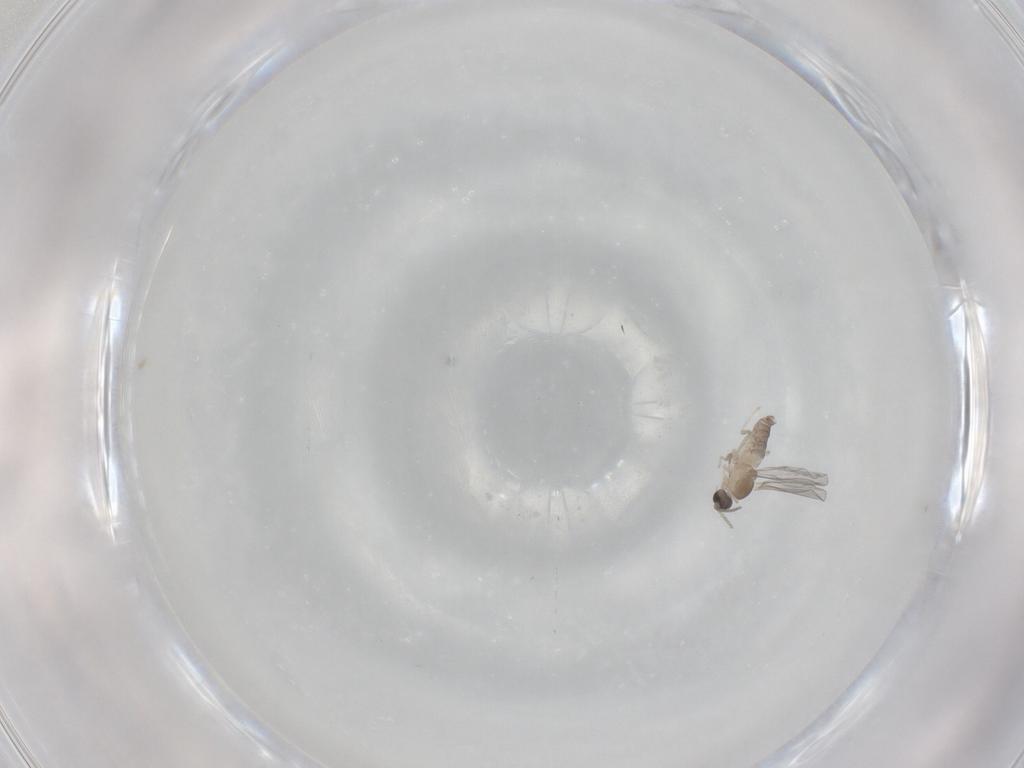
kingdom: Animalia
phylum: Arthropoda
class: Insecta
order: Diptera
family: Cecidomyiidae
